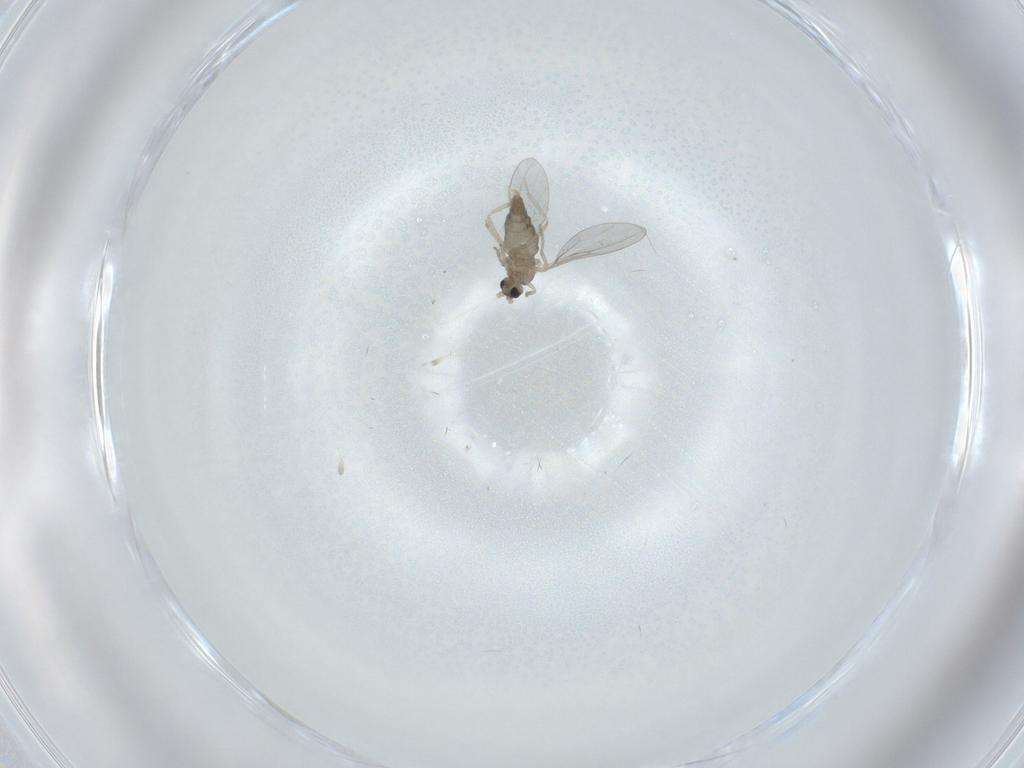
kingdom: Animalia
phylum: Arthropoda
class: Insecta
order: Diptera
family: Cecidomyiidae
